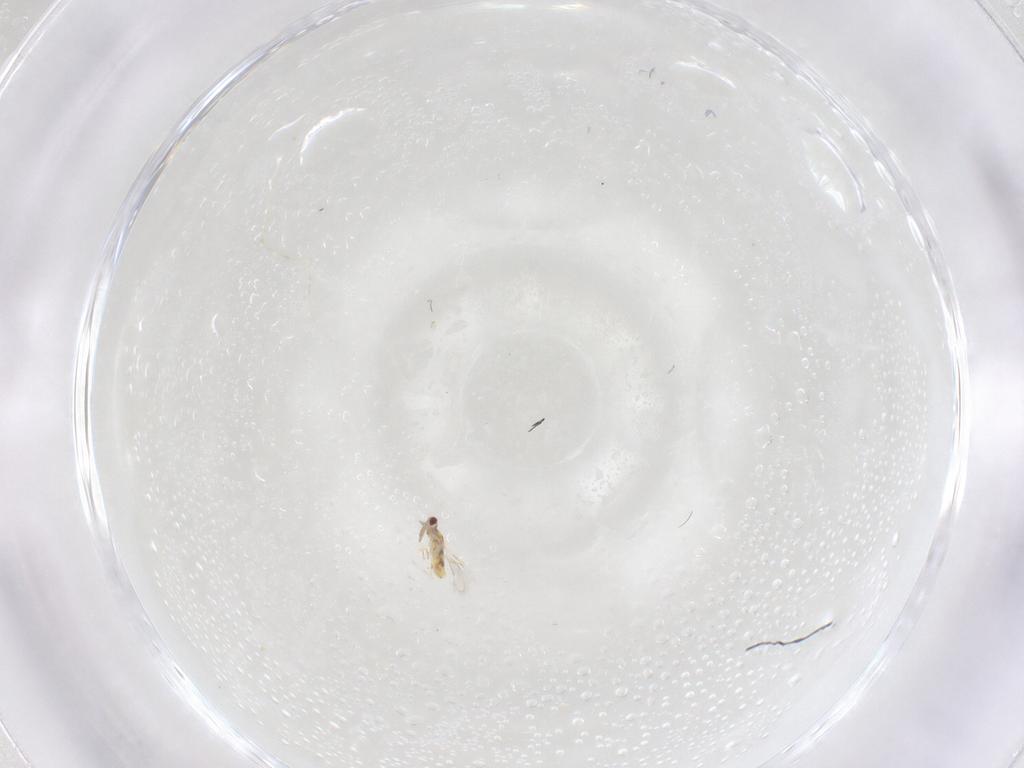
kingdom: Animalia
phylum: Arthropoda
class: Insecta
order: Hymenoptera
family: Aphelinidae
